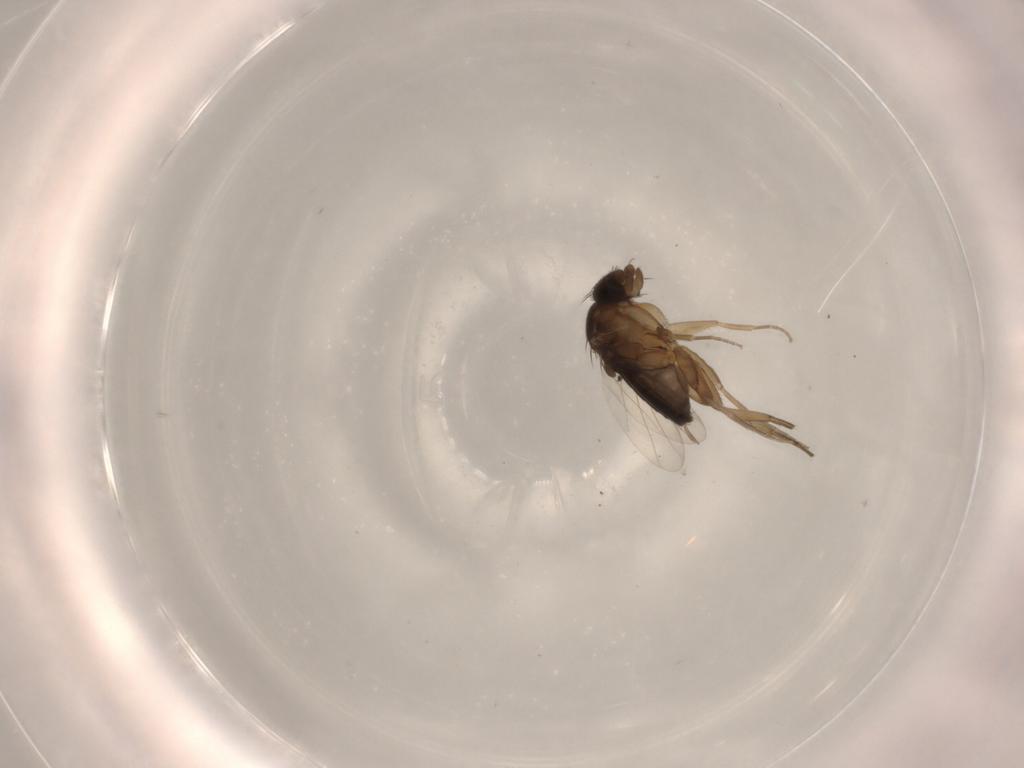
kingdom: Animalia
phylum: Arthropoda
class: Insecta
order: Diptera
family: Phoridae
